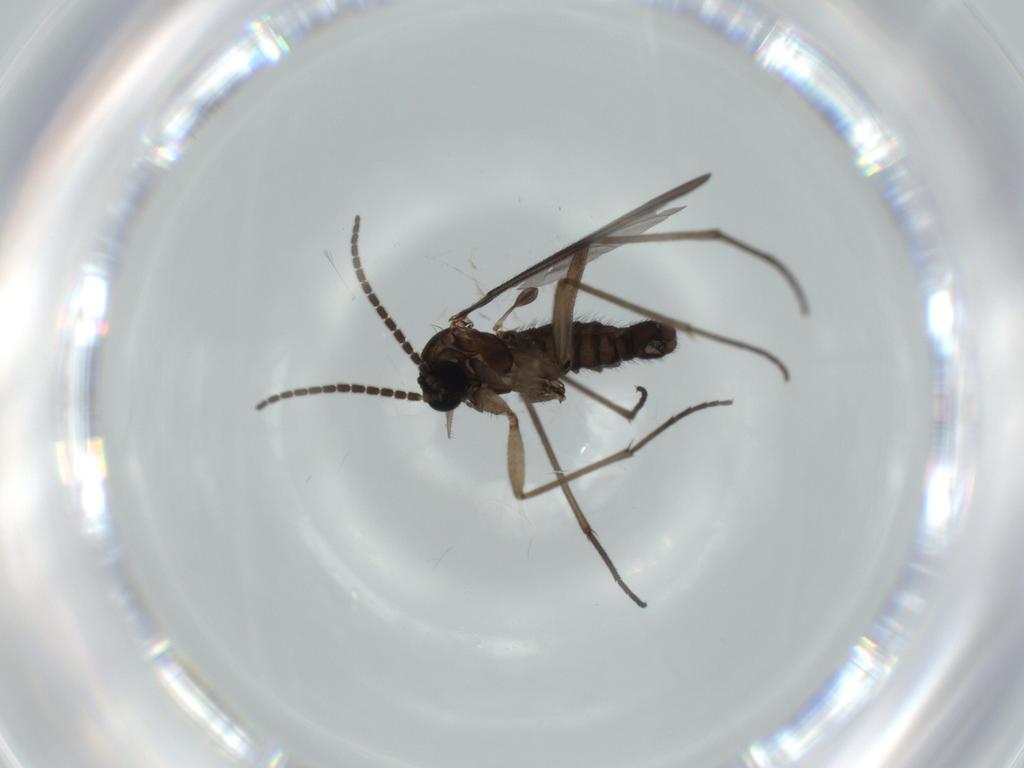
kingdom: Animalia
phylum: Arthropoda
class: Insecta
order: Diptera
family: Sciaridae
